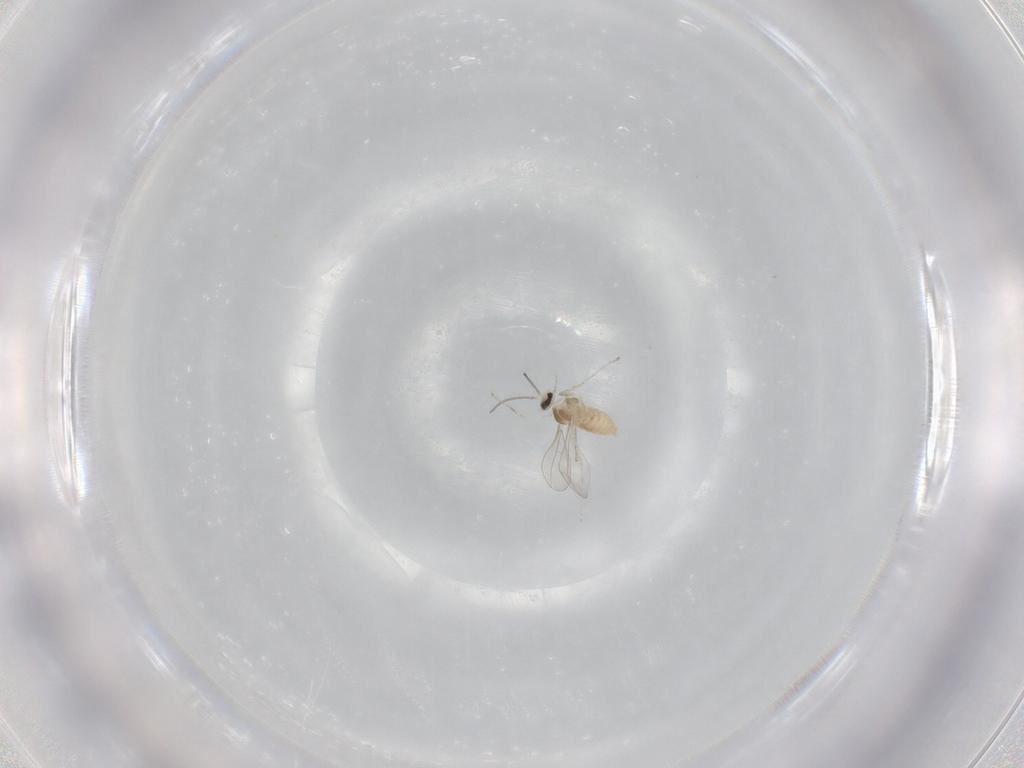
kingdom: Animalia
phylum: Arthropoda
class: Insecta
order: Diptera
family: Cecidomyiidae
